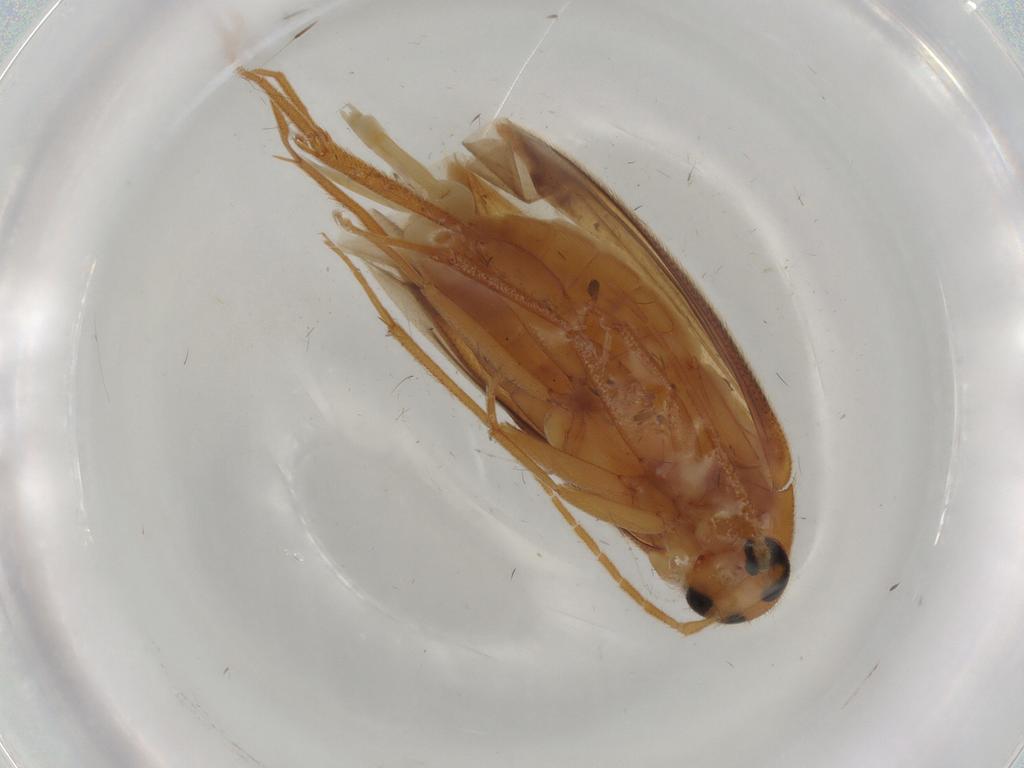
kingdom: Animalia
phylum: Arthropoda
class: Insecta
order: Coleoptera
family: Scraptiidae
